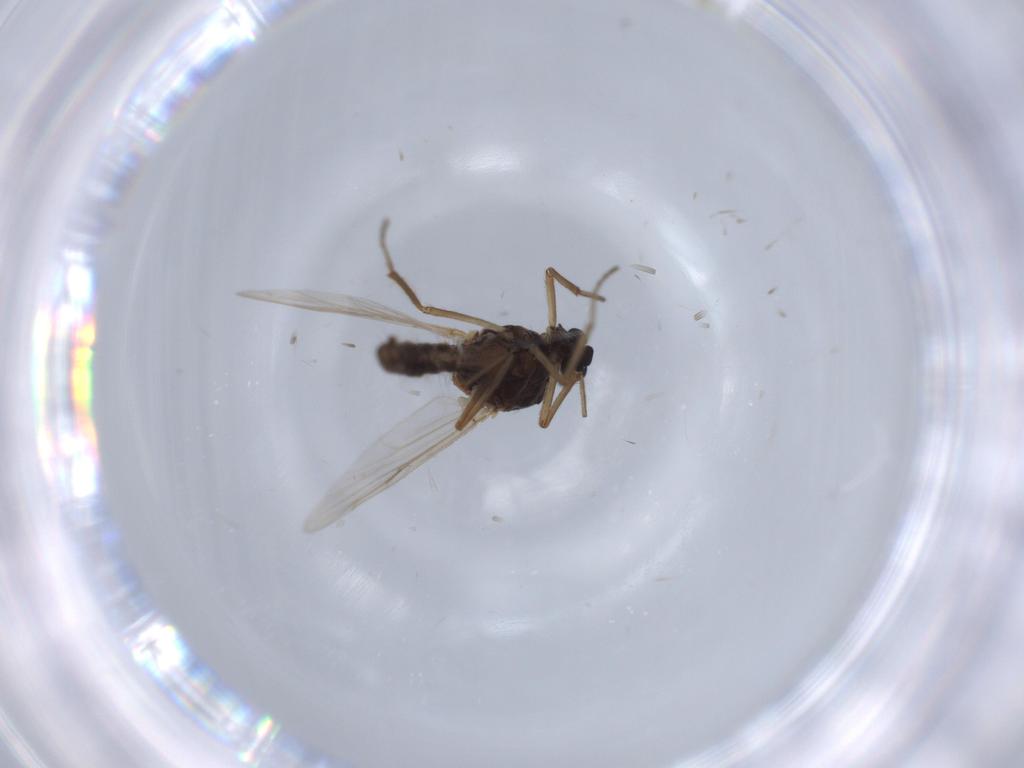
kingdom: Animalia
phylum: Arthropoda
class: Insecta
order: Diptera
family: Ceratopogonidae
